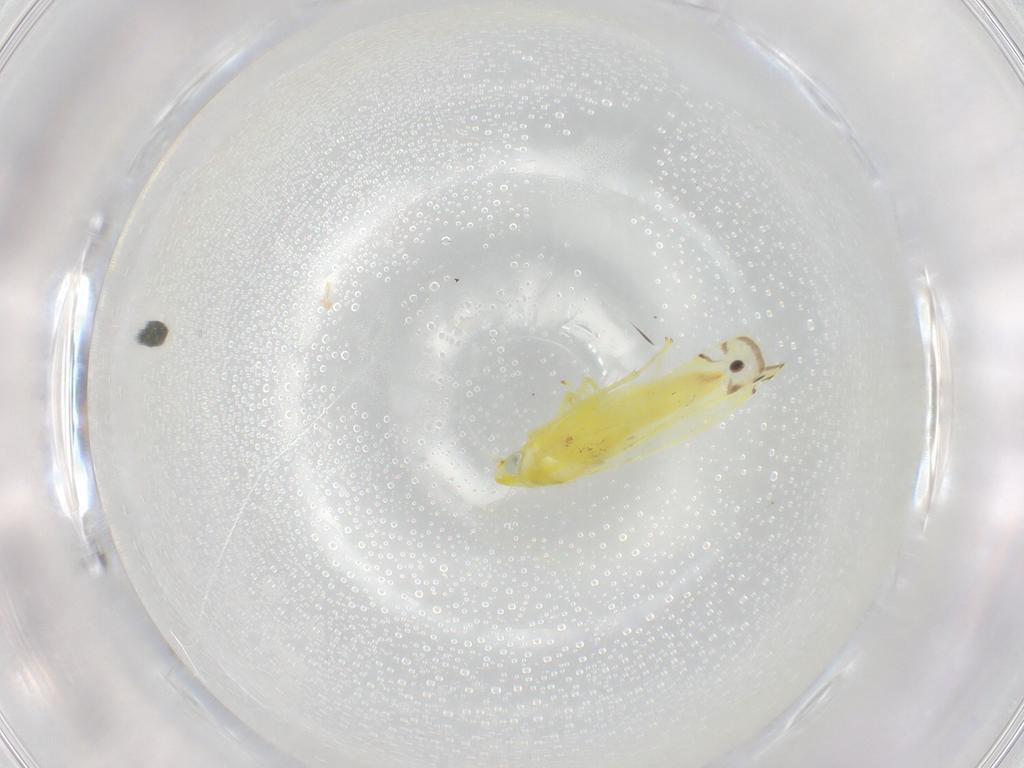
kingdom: Animalia
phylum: Arthropoda
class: Insecta
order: Hemiptera
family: Cicadellidae
